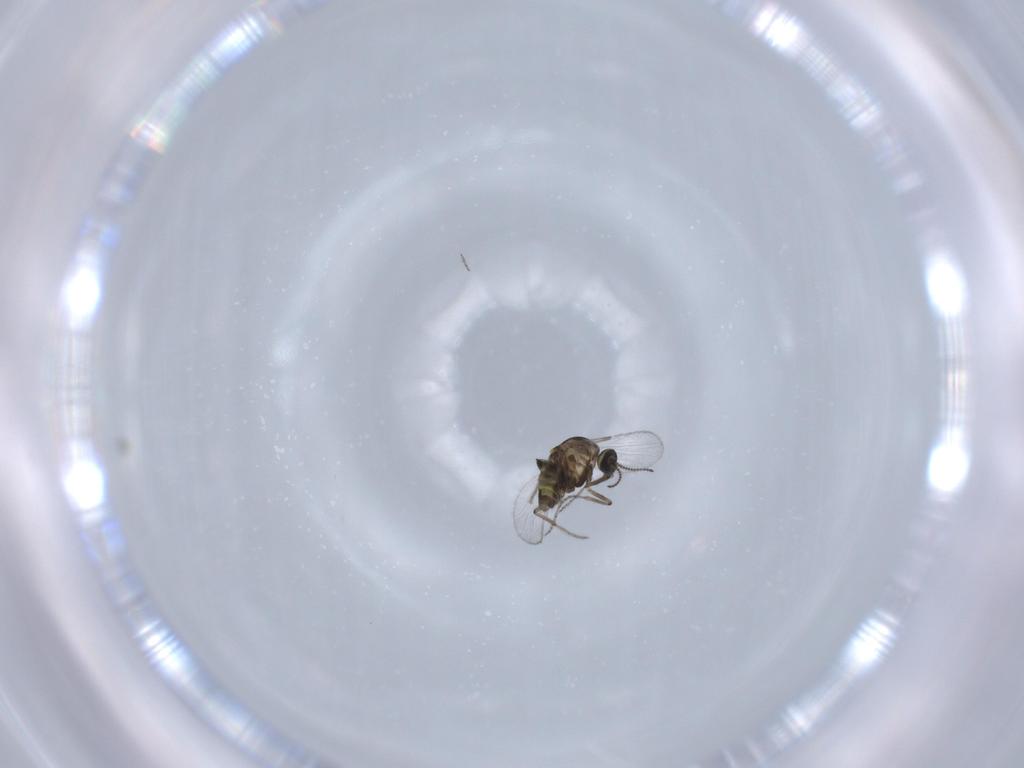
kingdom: Animalia
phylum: Arthropoda
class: Insecta
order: Diptera
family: Ceratopogonidae
